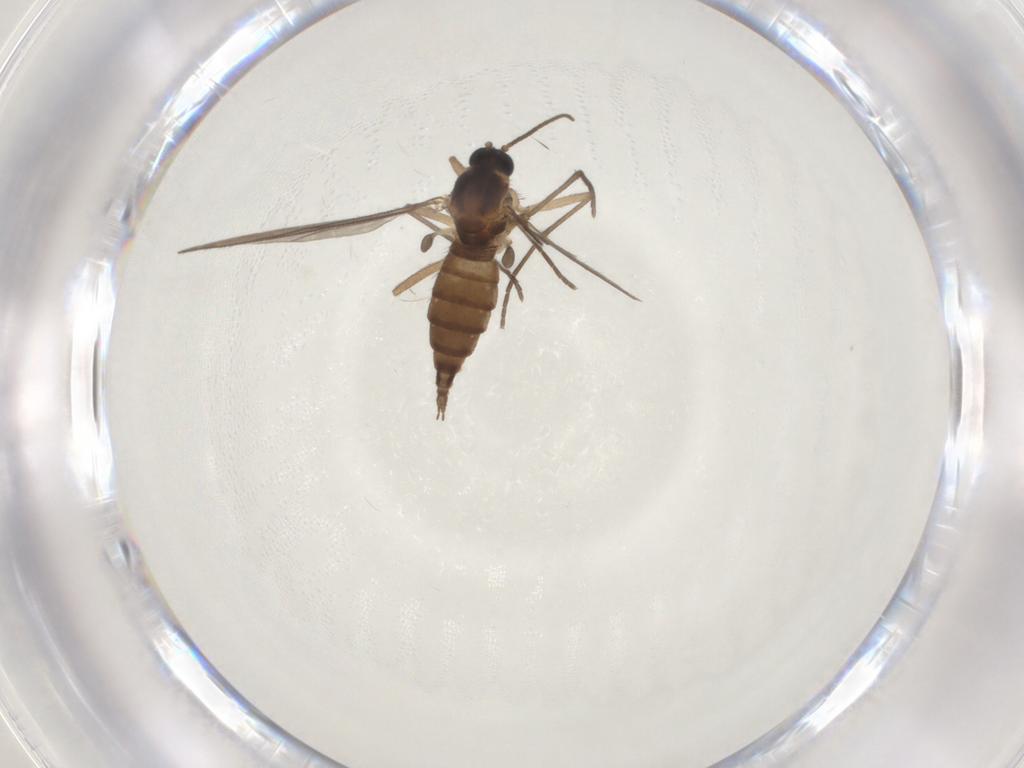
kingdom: Animalia
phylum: Arthropoda
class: Insecta
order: Diptera
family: Sciaridae
